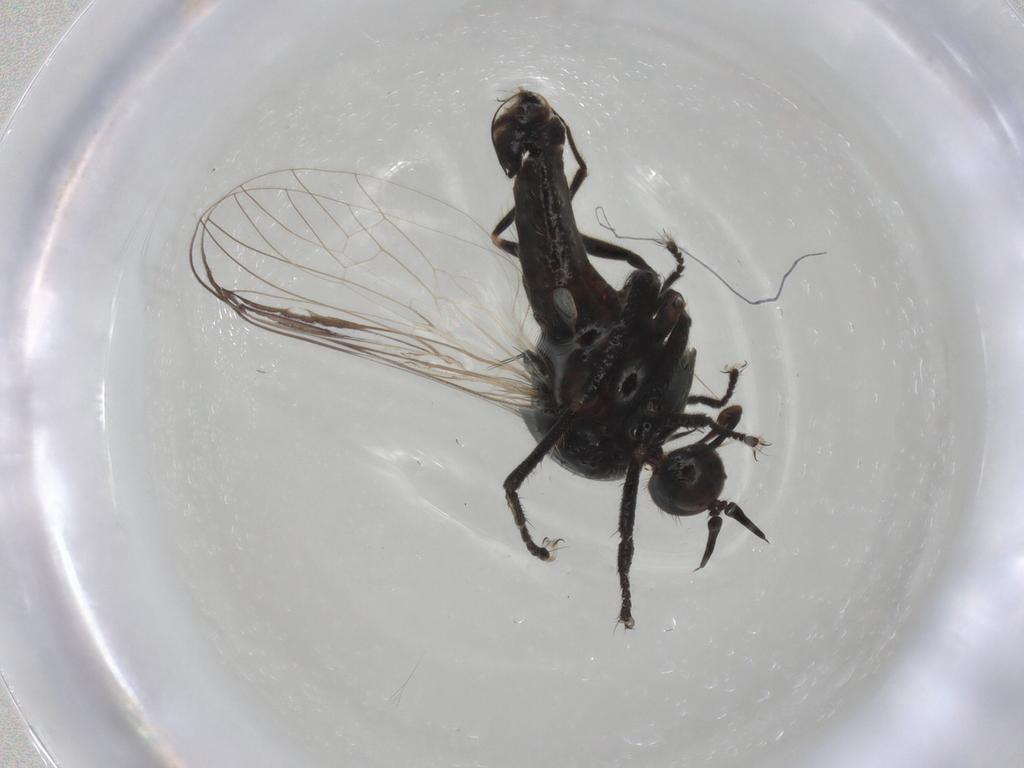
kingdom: Animalia
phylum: Arthropoda
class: Insecta
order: Diptera
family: Empididae
